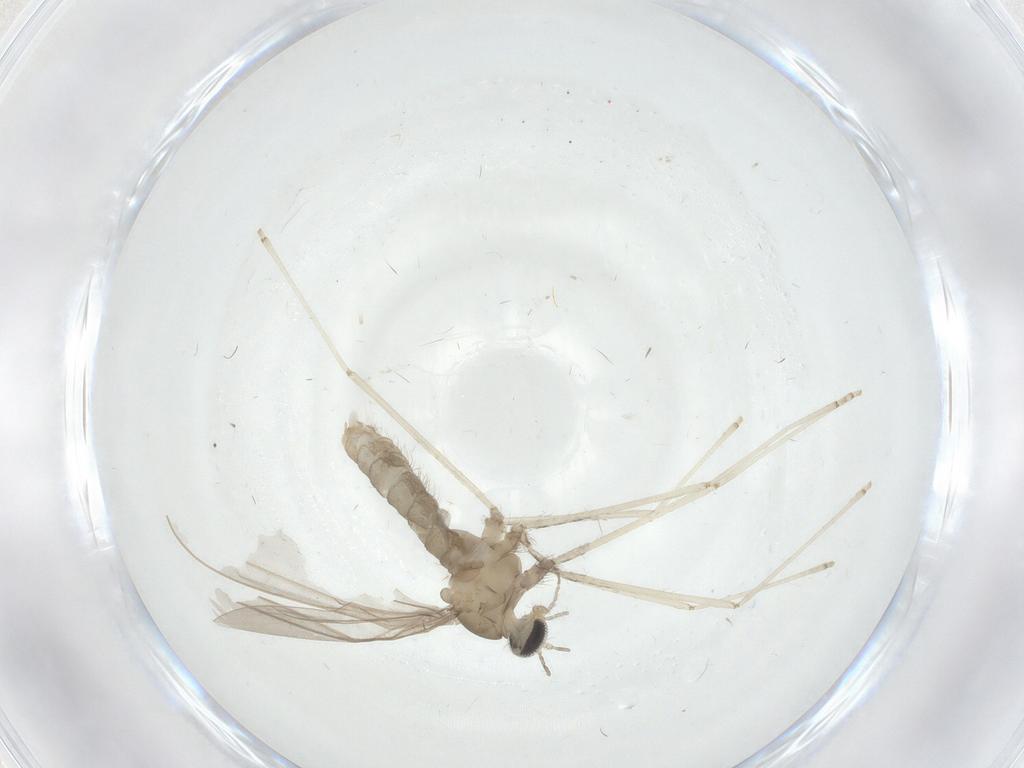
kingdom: Animalia
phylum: Arthropoda
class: Insecta
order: Diptera
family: Cecidomyiidae
